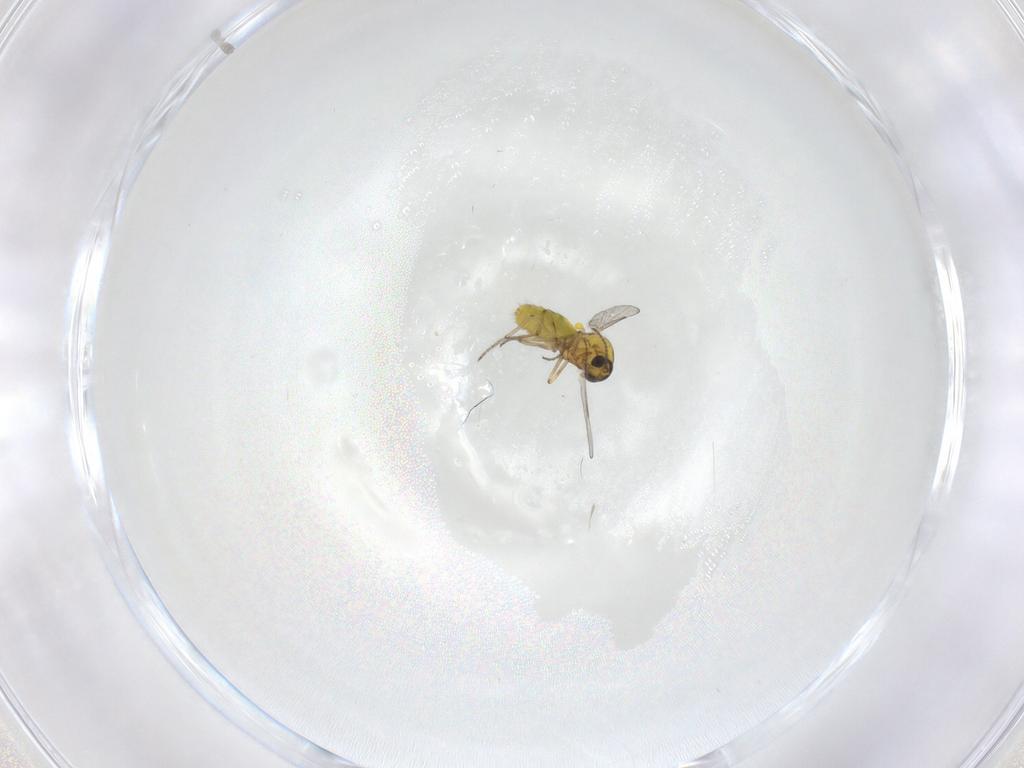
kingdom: Animalia
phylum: Arthropoda
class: Insecta
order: Diptera
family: Ceratopogonidae
